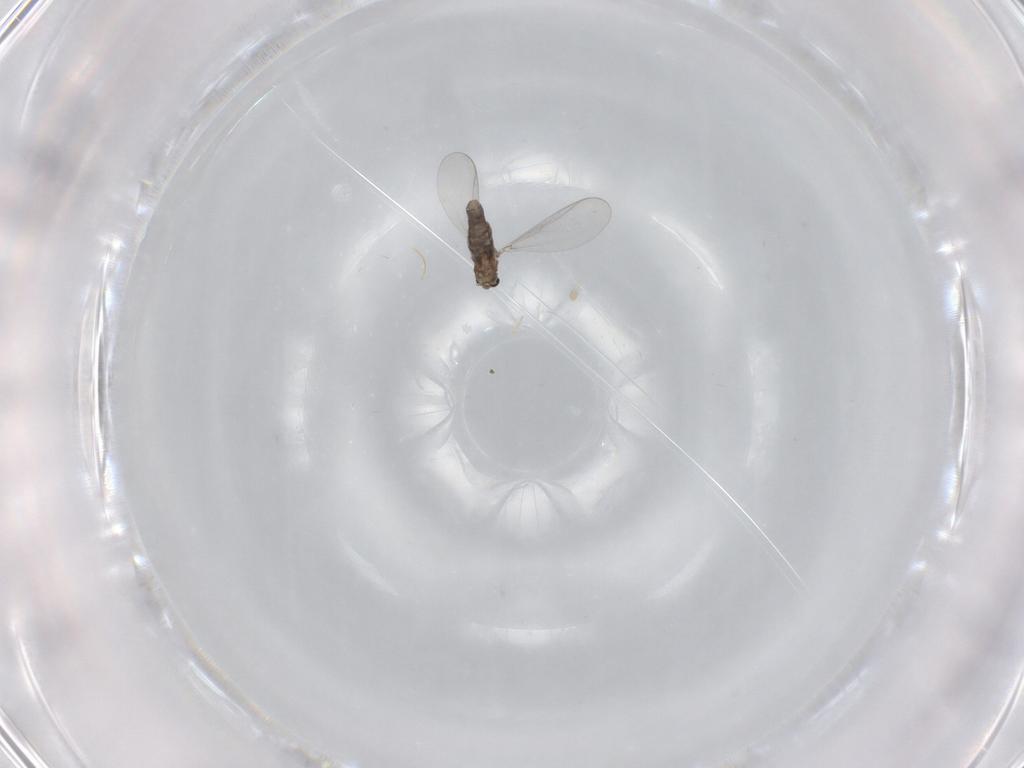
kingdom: Animalia
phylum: Arthropoda
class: Insecta
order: Diptera
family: Chironomidae
